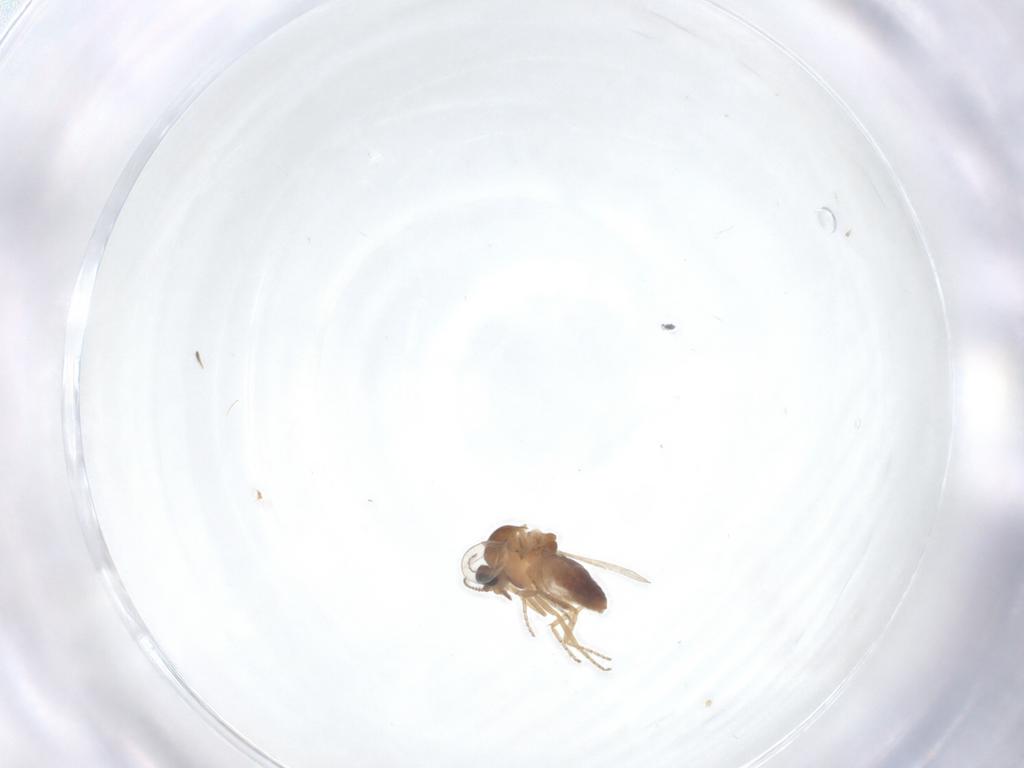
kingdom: Animalia
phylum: Arthropoda
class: Insecta
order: Diptera
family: Ceratopogonidae
